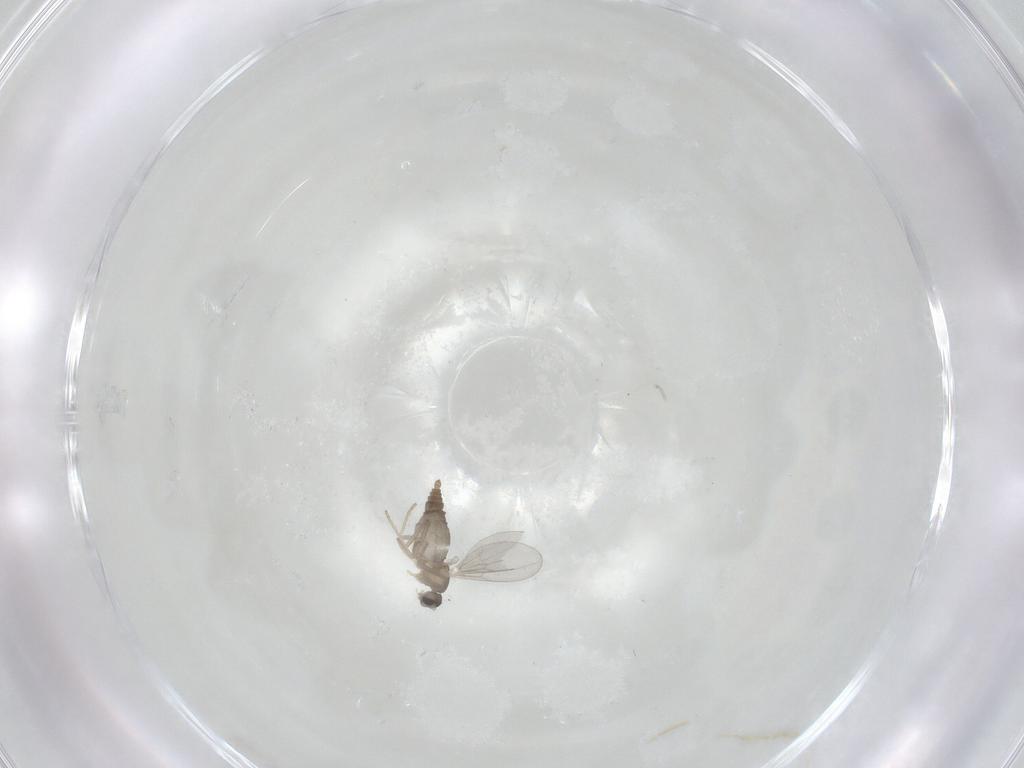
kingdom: Animalia
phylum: Arthropoda
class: Insecta
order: Diptera
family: Cecidomyiidae
